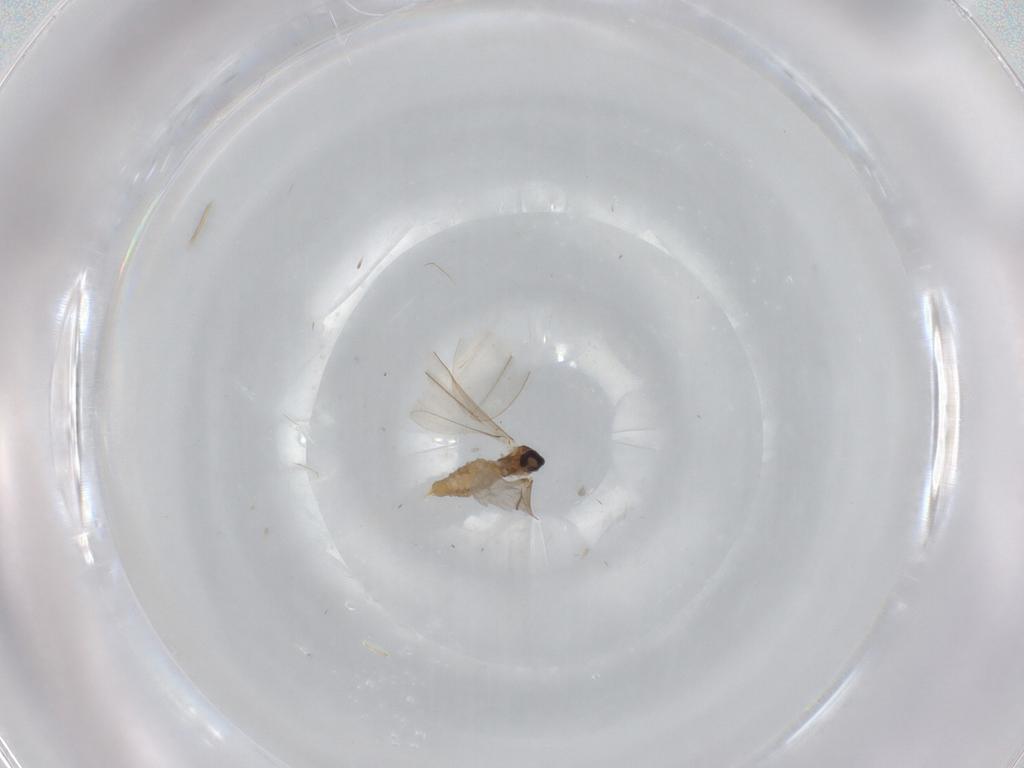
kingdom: Animalia
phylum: Arthropoda
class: Insecta
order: Diptera
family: Cecidomyiidae
